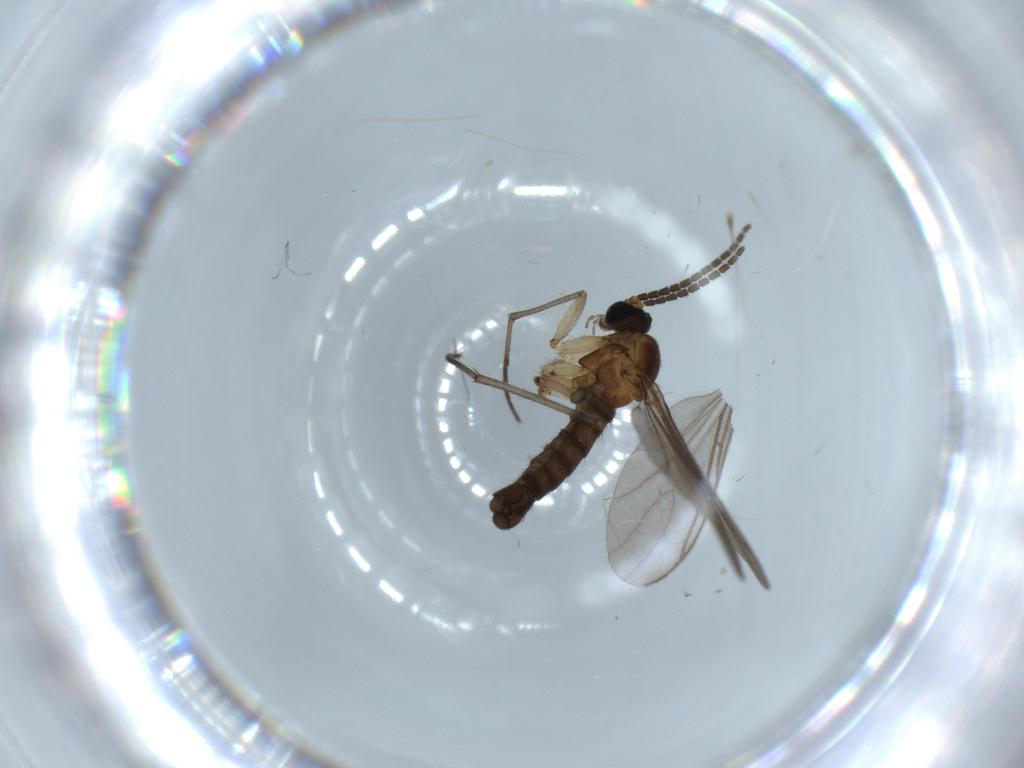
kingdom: Animalia
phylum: Arthropoda
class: Insecta
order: Diptera
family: Sciaridae
